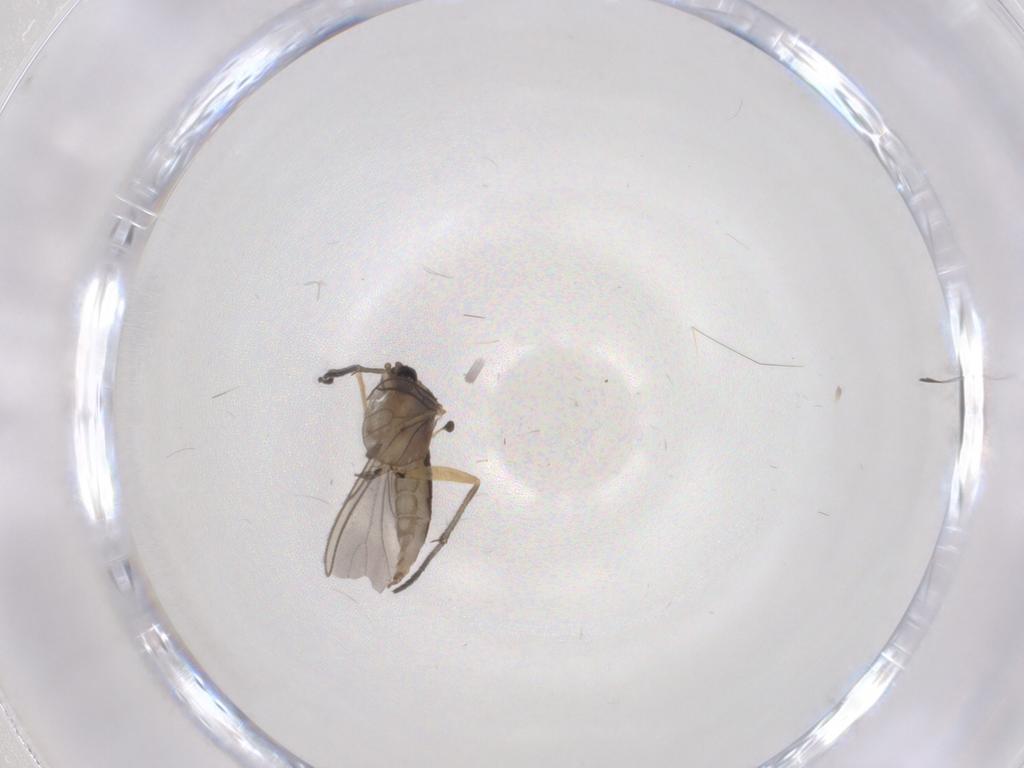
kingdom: Animalia
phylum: Arthropoda
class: Insecta
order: Diptera
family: Sciaridae
